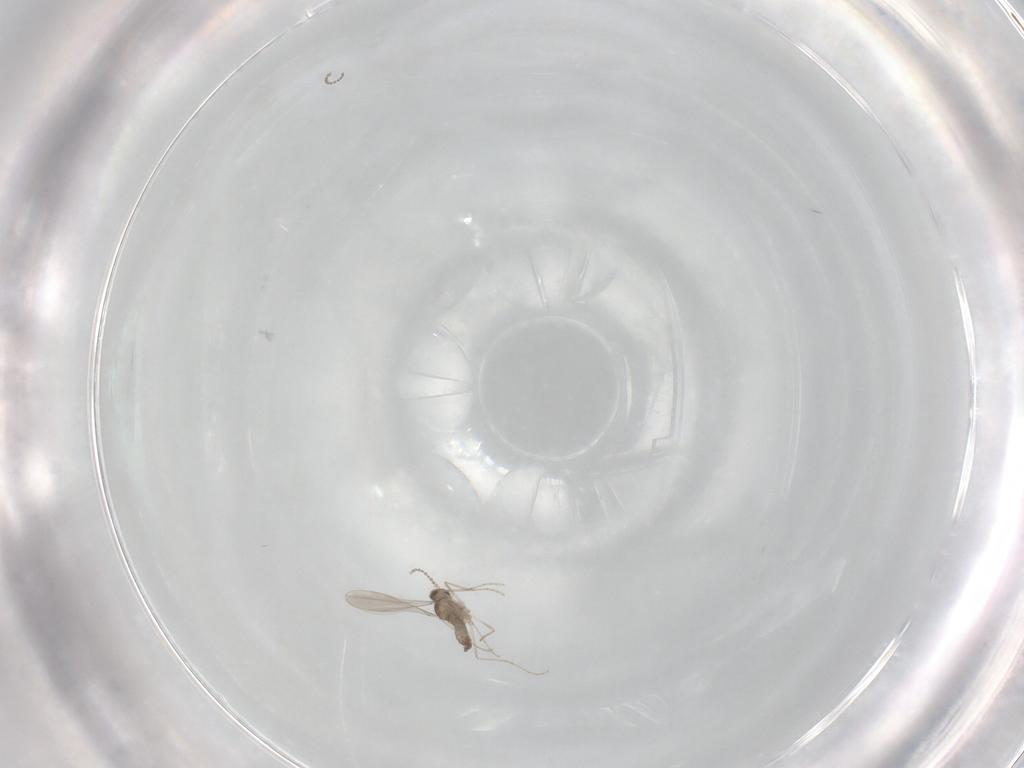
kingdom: Animalia
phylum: Arthropoda
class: Insecta
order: Diptera
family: Cecidomyiidae
